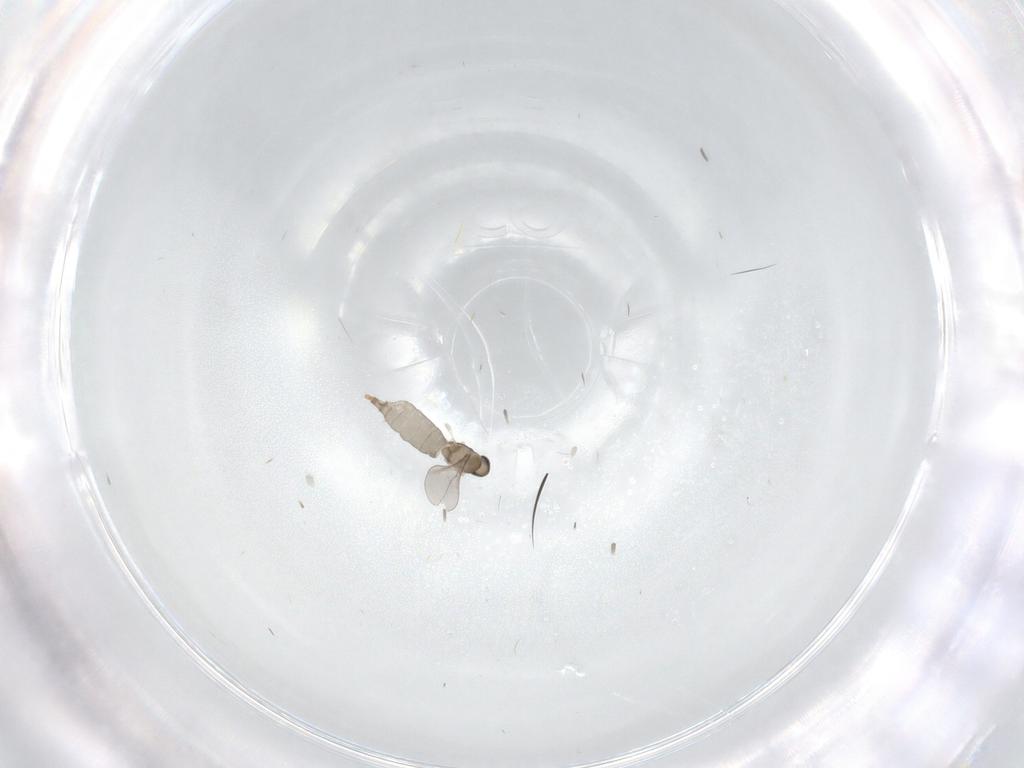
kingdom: Animalia
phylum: Arthropoda
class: Insecta
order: Diptera
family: Cecidomyiidae
